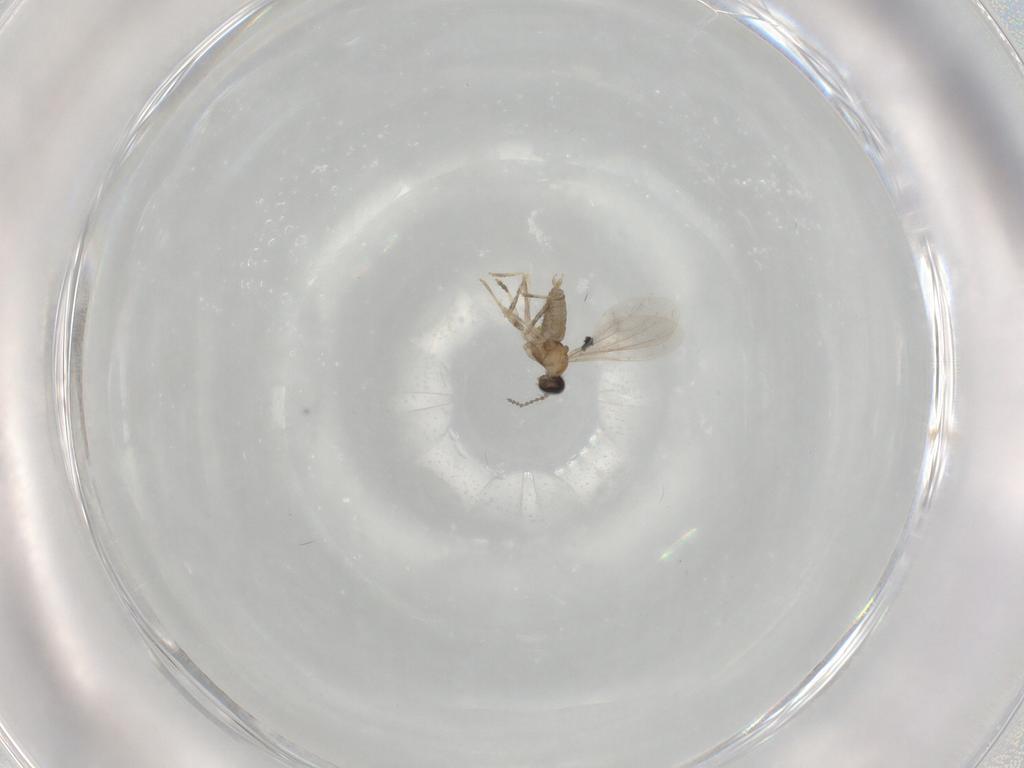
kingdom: Animalia
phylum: Arthropoda
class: Insecta
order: Diptera
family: Cecidomyiidae
